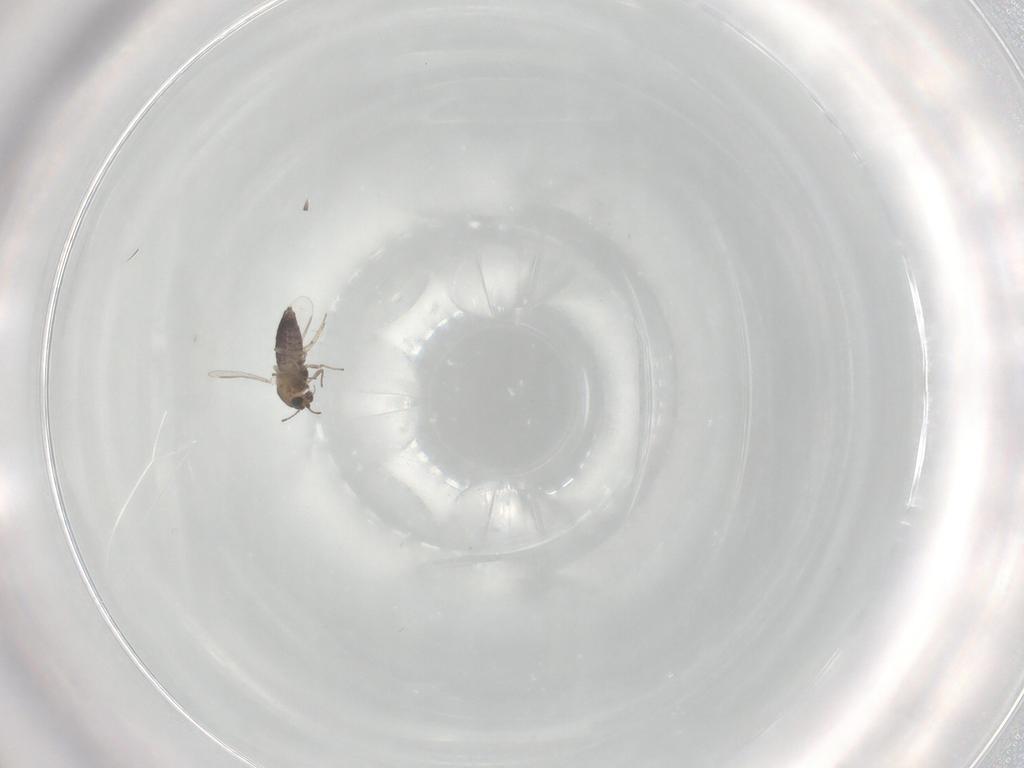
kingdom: Animalia
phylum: Arthropoda
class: Insecta
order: Diptera
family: Chironomidae
